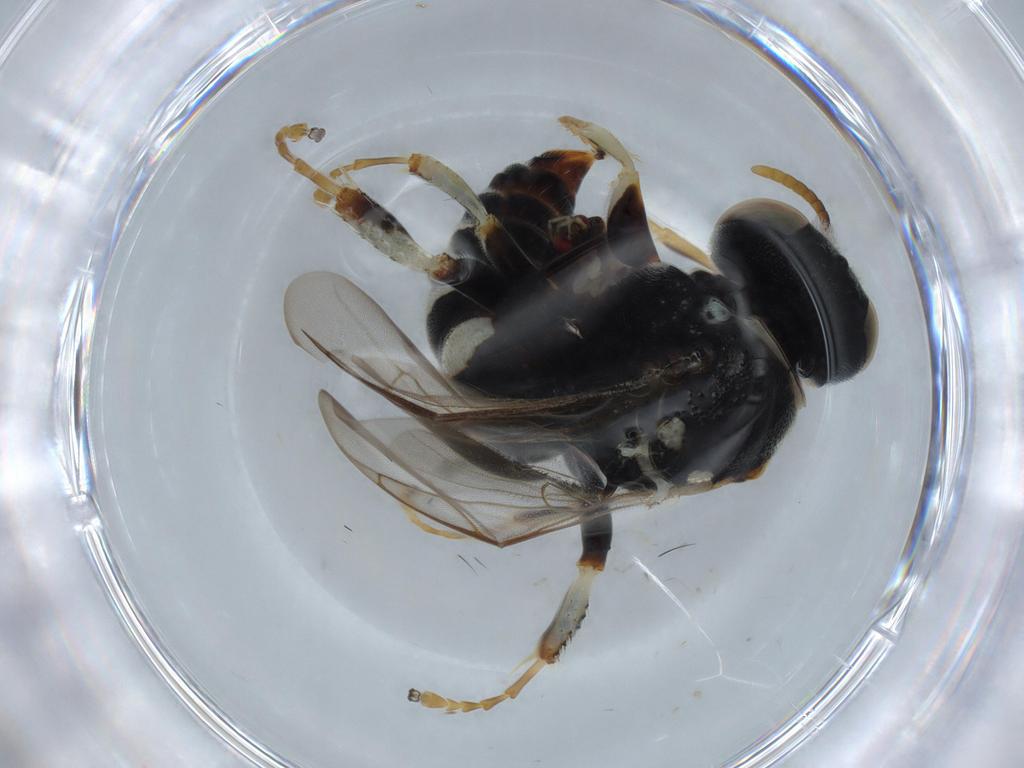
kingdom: Animalia
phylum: Arthropoda
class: Insecta
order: Hymenoptera
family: Crabronidae
